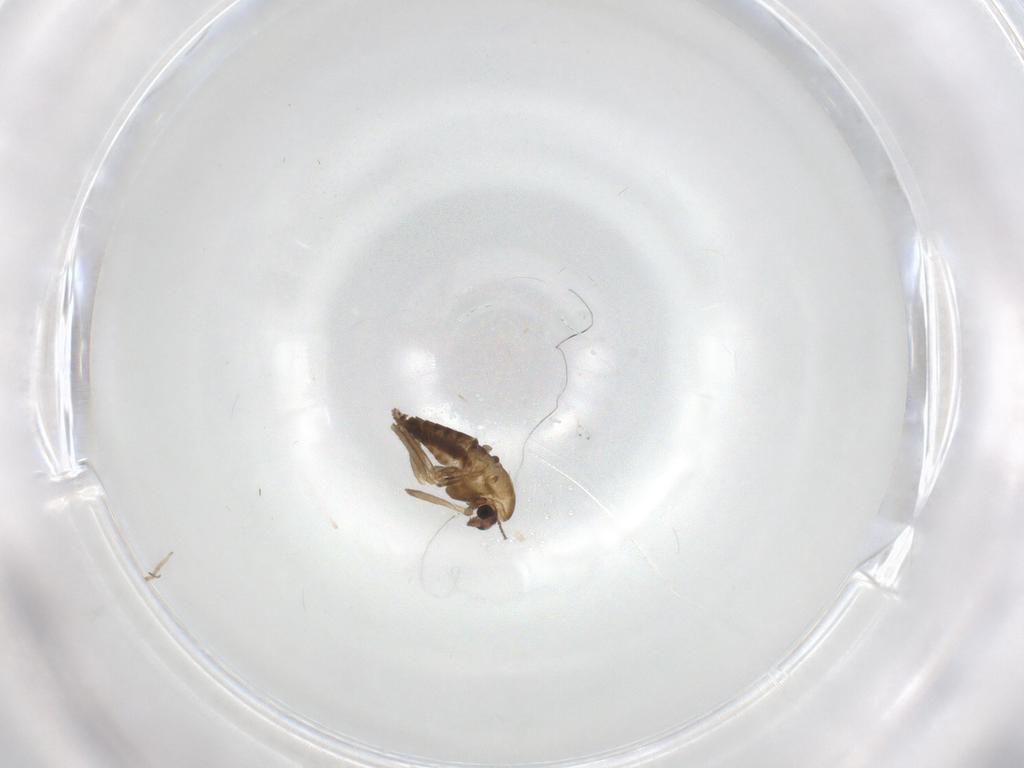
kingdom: Animalia
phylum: Arthropoda
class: Insecta
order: Diptera
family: Chironomidae
